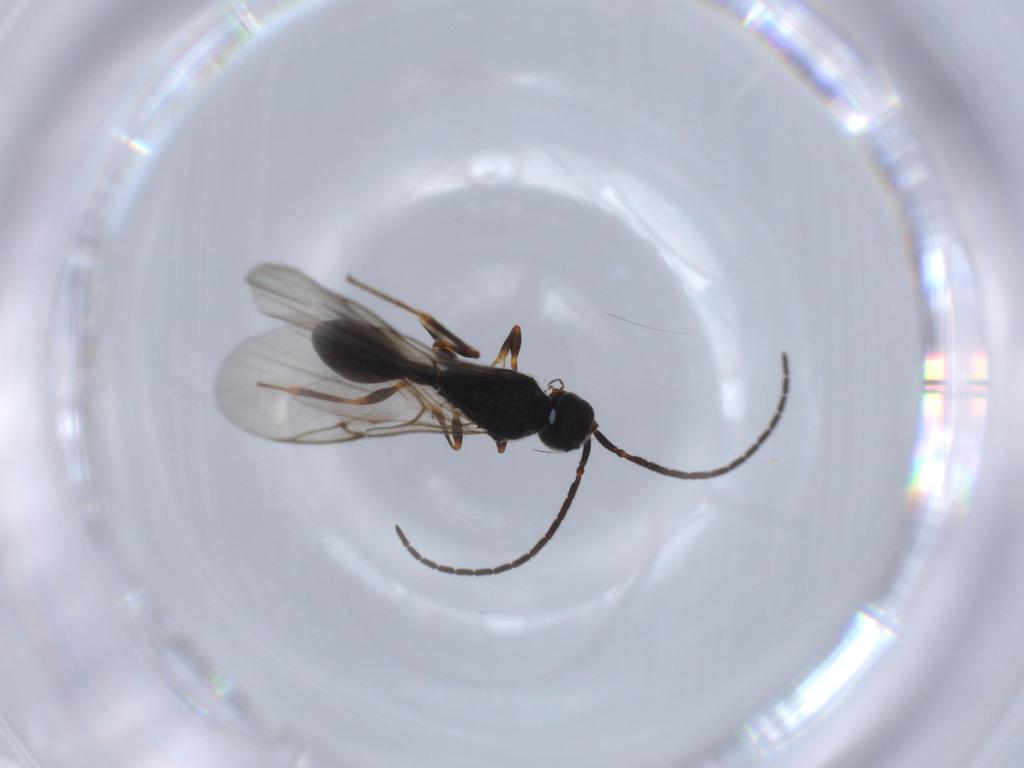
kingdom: Animalia
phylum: Arthropoda
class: Insecta
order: Hymenoptera
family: Ichneumonidae
